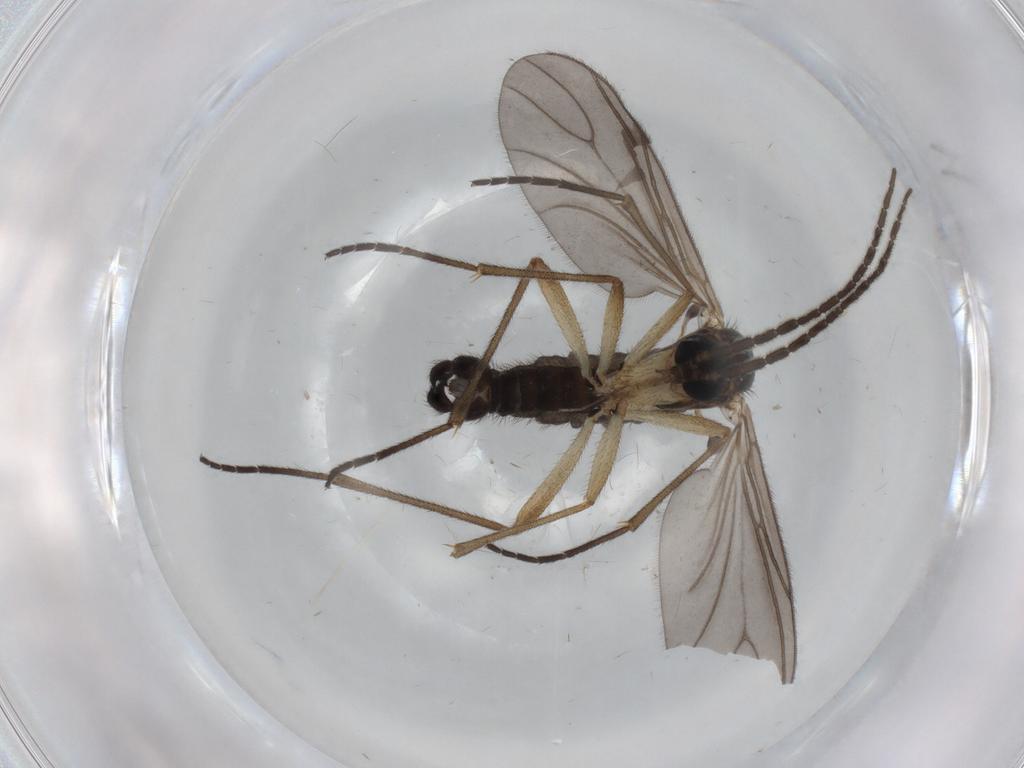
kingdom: Animalia
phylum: Arthropoda
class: Insecta
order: Diptera
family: Sciaridae
